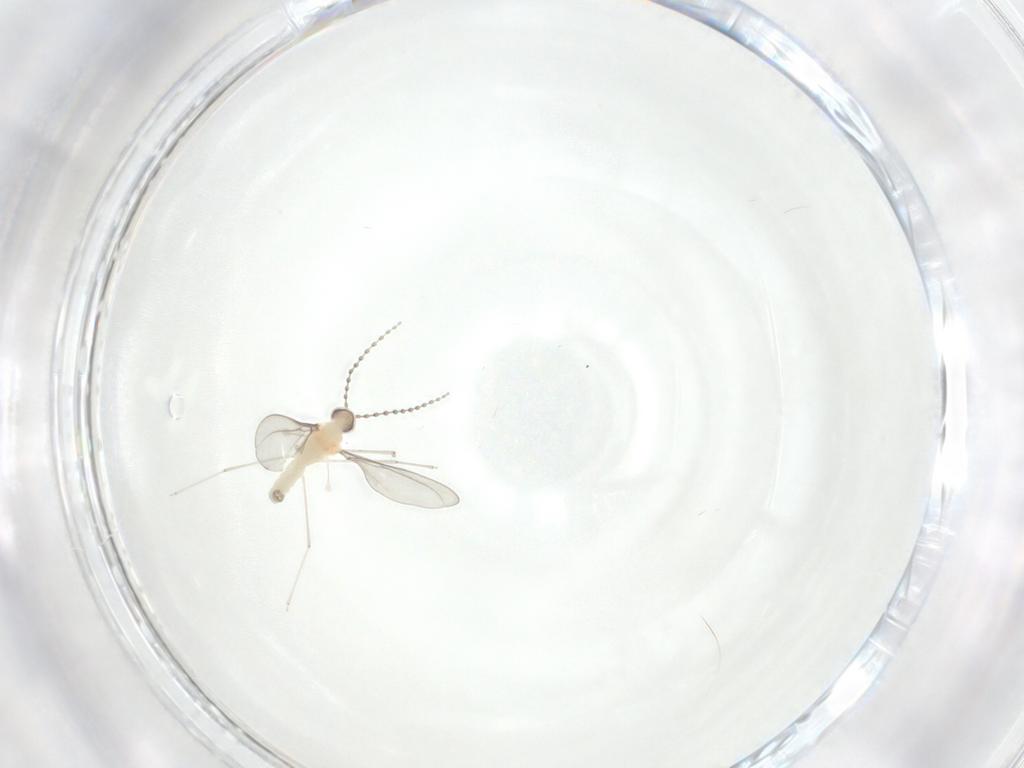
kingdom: Animalia
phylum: Arthropoda
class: Insecta
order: Diptera
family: Cecidomyiidae
